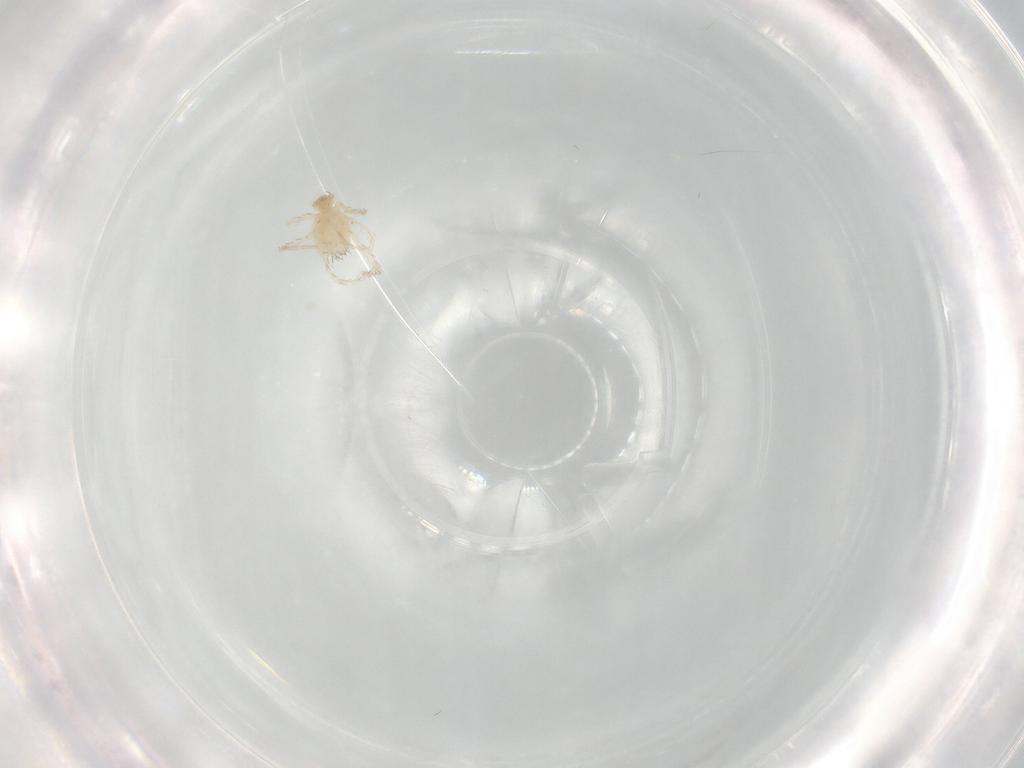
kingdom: Animalia
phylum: Arthropoda
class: Arachnida
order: Trombidiformes
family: Erythraeidae
